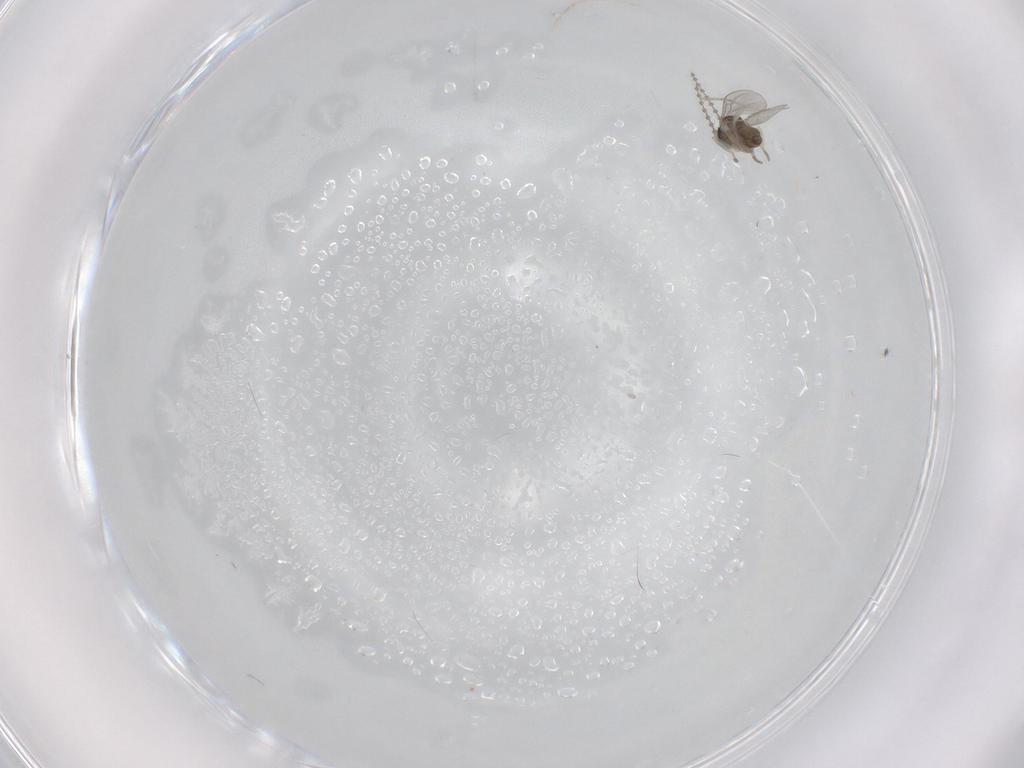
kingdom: Animalia
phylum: Arthropoda
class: Insecta
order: Diptera
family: Cecidomyiidae
